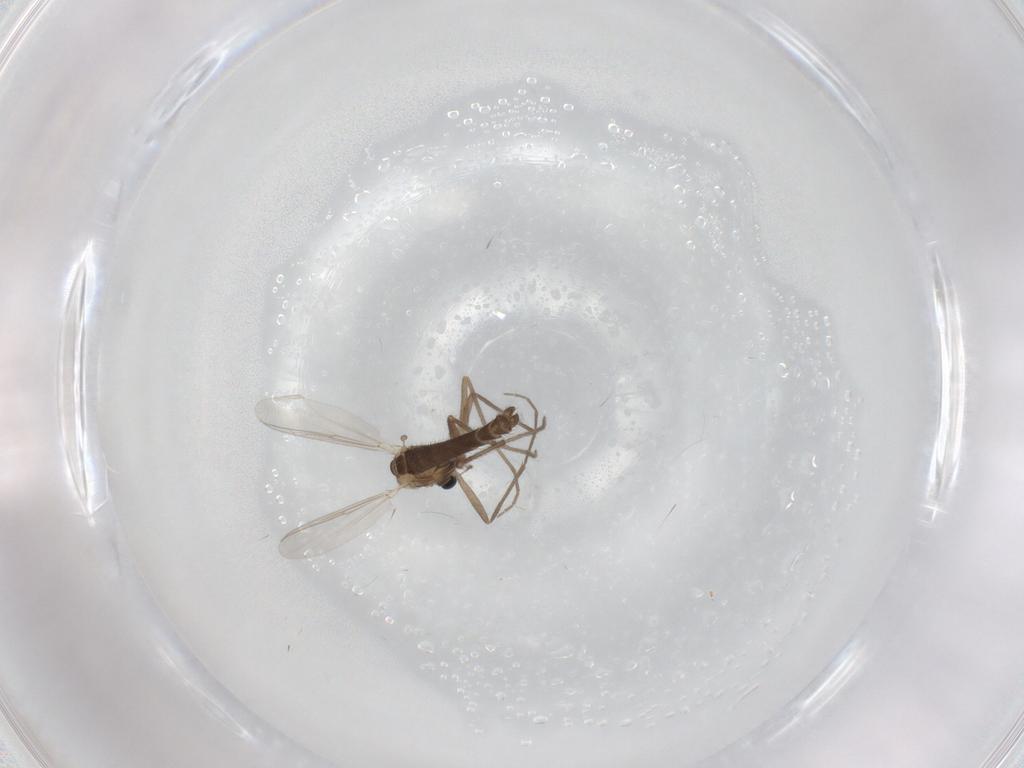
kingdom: Animalia
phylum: Arthropoda
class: Insecta
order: Diptera
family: Chironomidae
